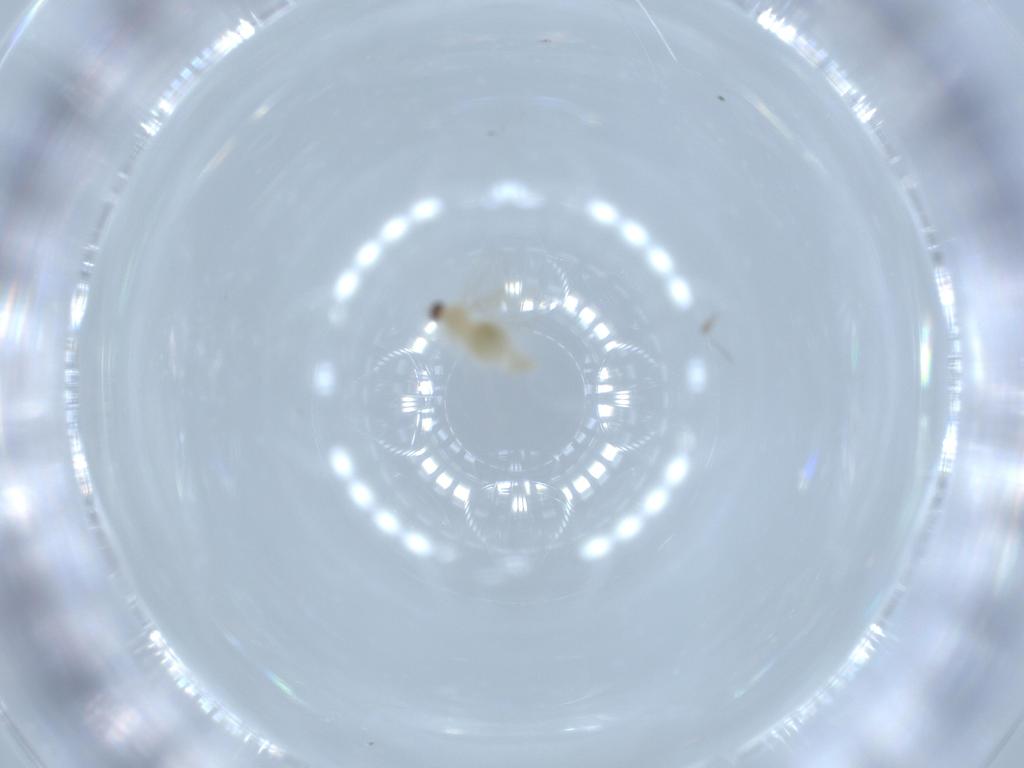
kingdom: Animalia
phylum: Arthropoda
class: Insecta
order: Diptera
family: Cecidomyiidae
